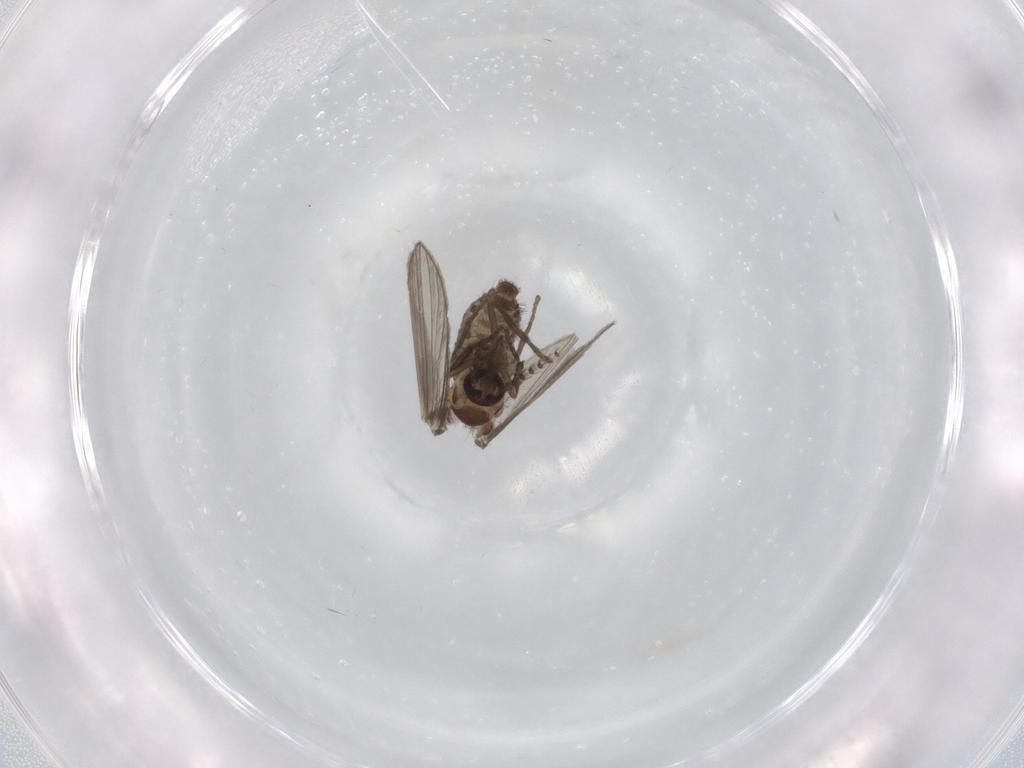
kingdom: Animalia
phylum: Arthropoda
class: Insecta
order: Diptera
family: Psychodidae
